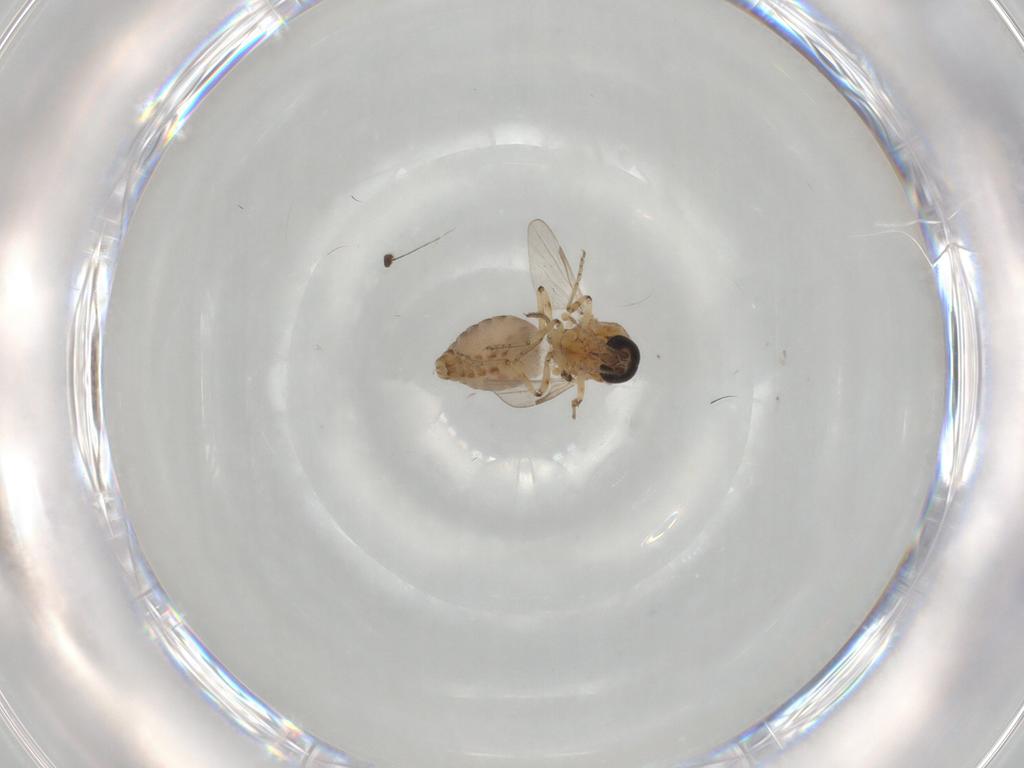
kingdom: Animalia
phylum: Arthropoda
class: Insecta
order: Diptera
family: Ceratopogonidae
